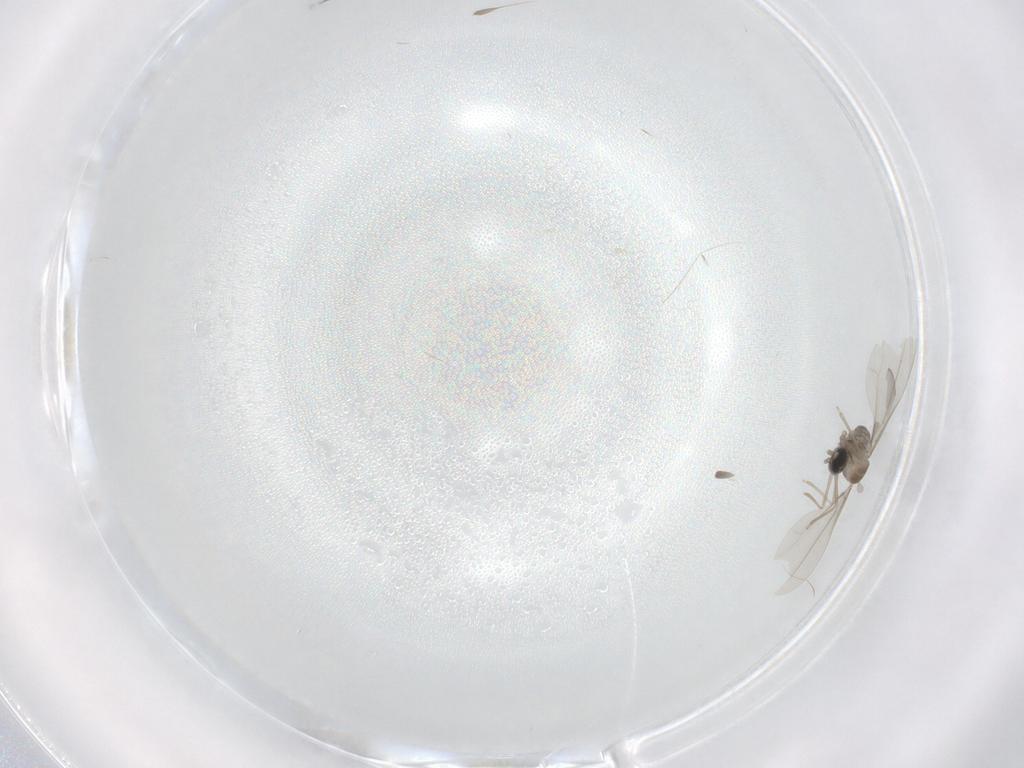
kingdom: Animalia
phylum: Arthropoda
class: Insecta
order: Diptera
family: Cecidomyiidae
